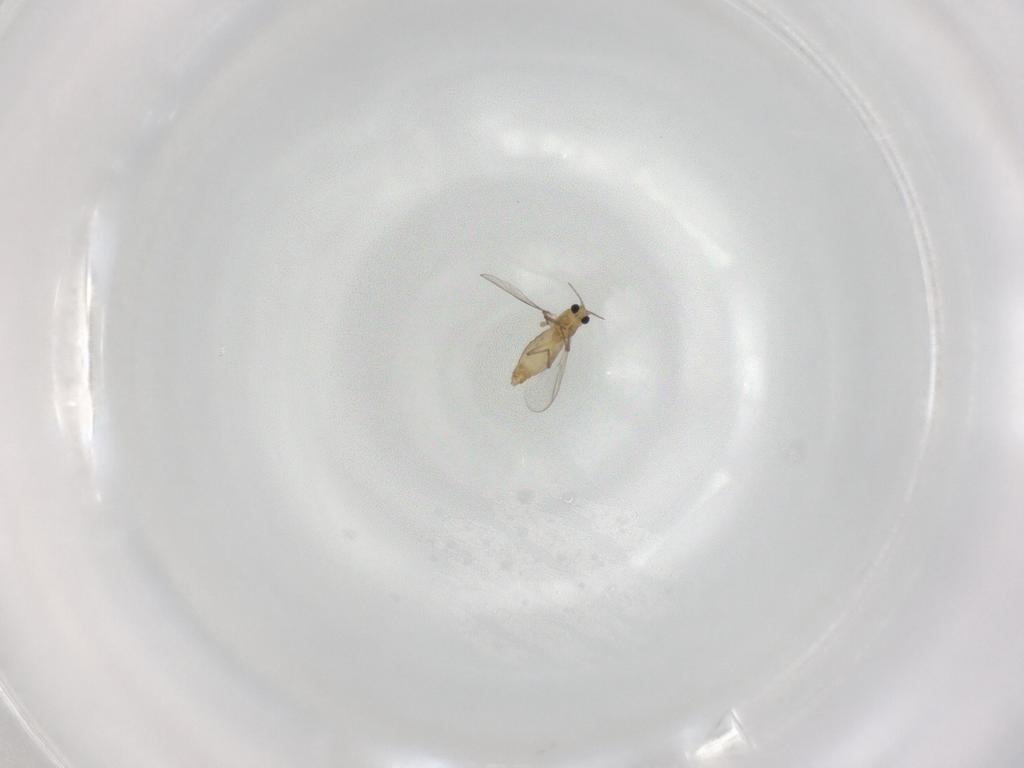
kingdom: Animalia
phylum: Arthropoda
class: Insecta
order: Diptera
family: Chironomidae
